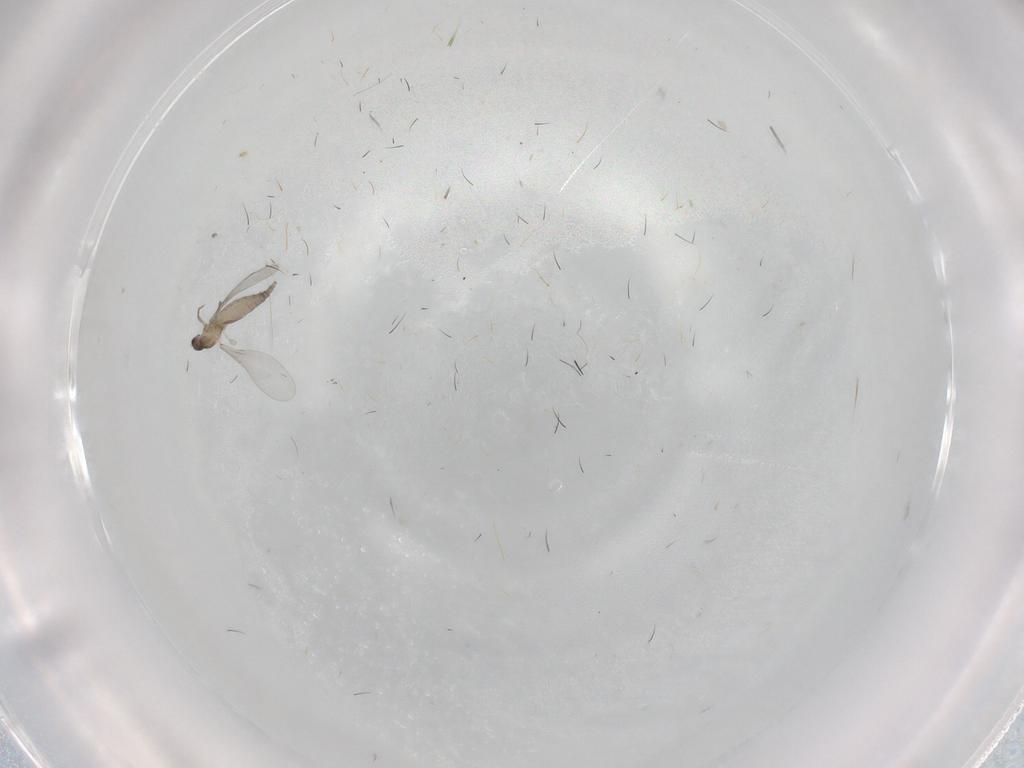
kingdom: Animalia
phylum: Arthropoda
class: Insecta
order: Diptera
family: Cecidomyiidae
